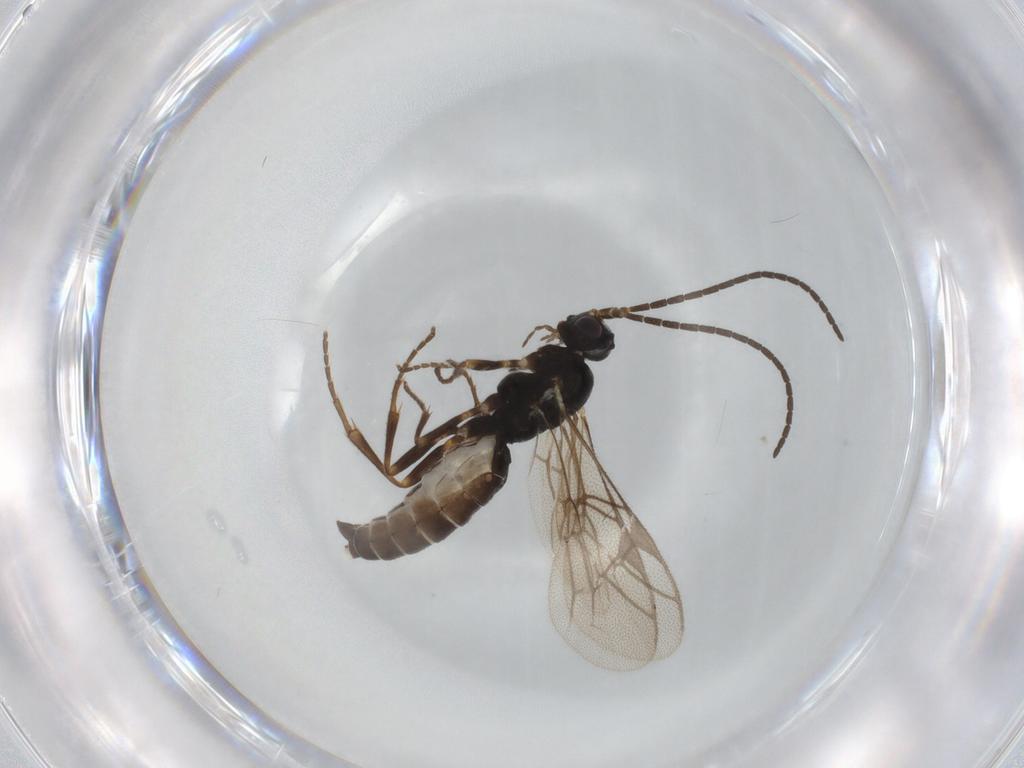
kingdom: Animalia
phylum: Arthropoda
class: Insecta
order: Hymenoptera
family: Ichneumonidae
